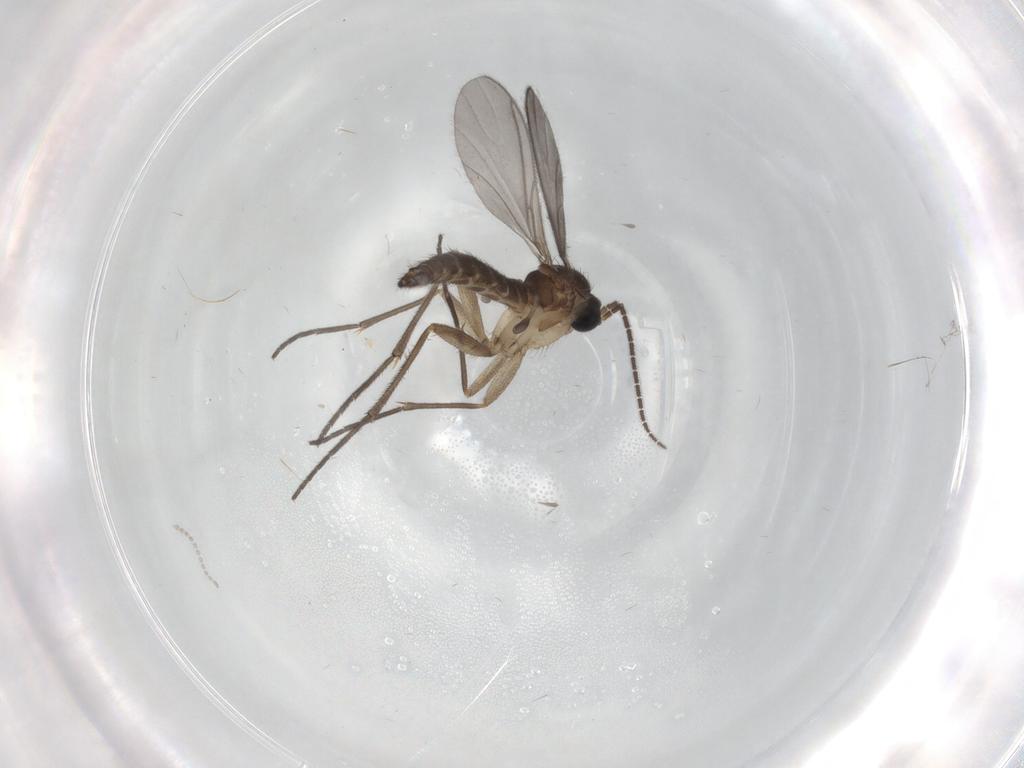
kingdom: Animalia
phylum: Arthropoda
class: Insecta
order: Diptera
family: Sciaridae
